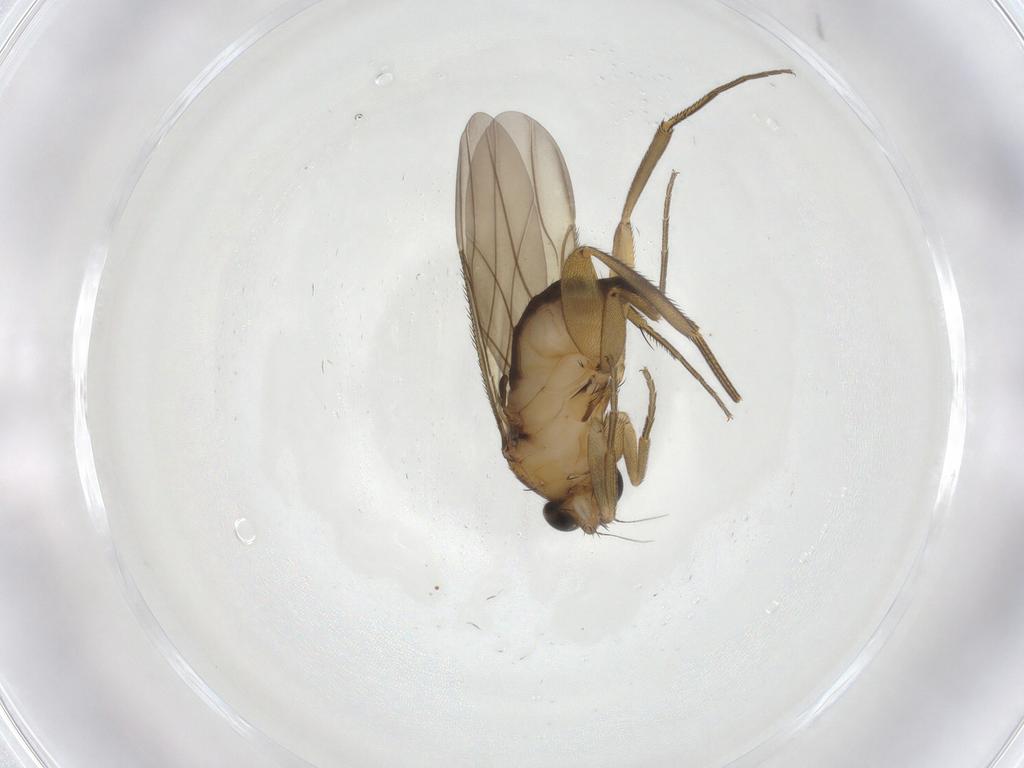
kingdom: Animalia
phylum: Arthropoda
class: Insecta
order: Diptera
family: Phoridae
